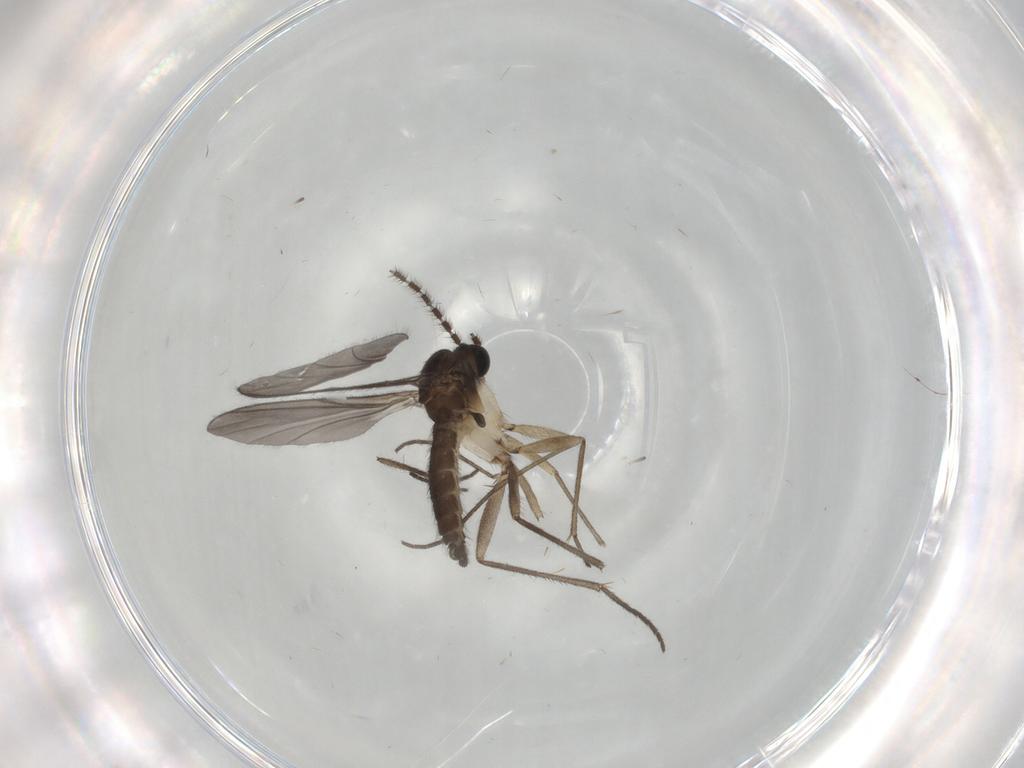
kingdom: Animalia
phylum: Arthropoda
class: Insecta
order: Diptera
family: Sciaridae
